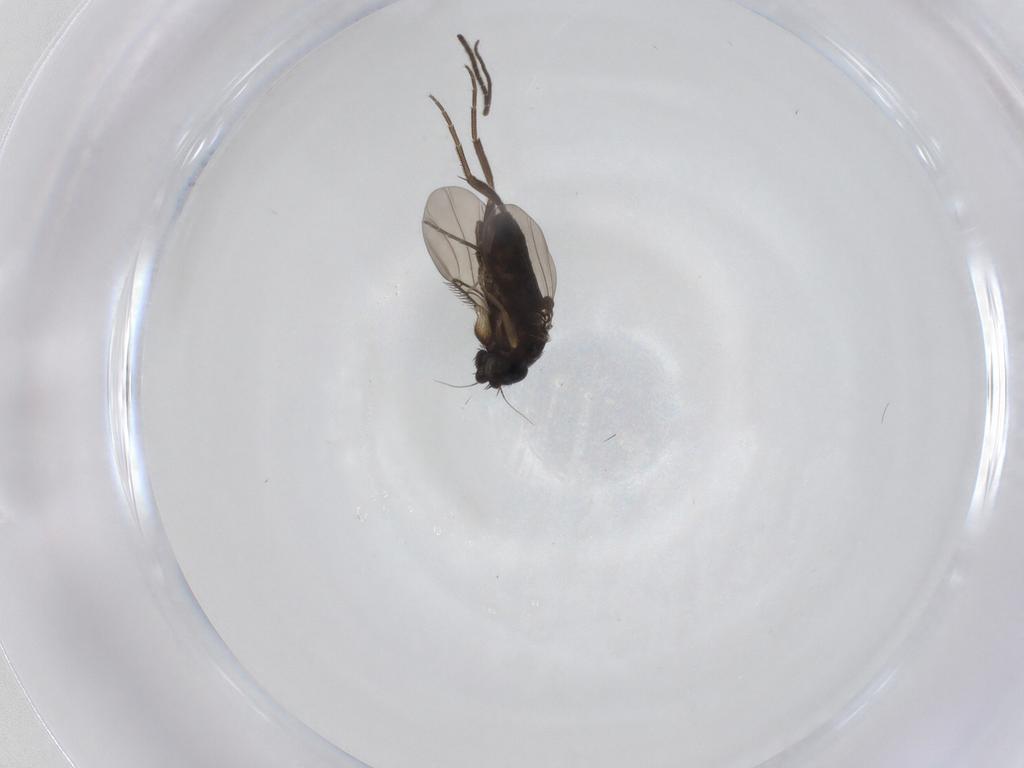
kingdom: Animalia
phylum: Arthropoda
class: Insecta
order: Diptera
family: Phoridae
